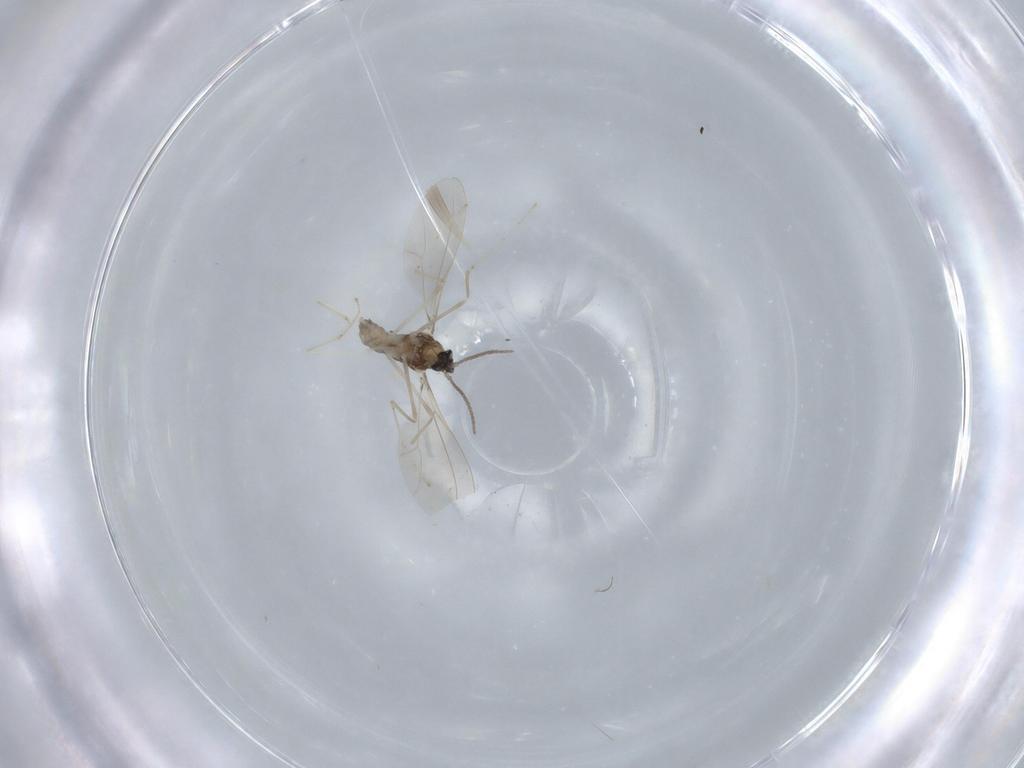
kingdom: Animalia
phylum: Arthropoda
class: Insecta
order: Diptera
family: Cecidomyiidae
